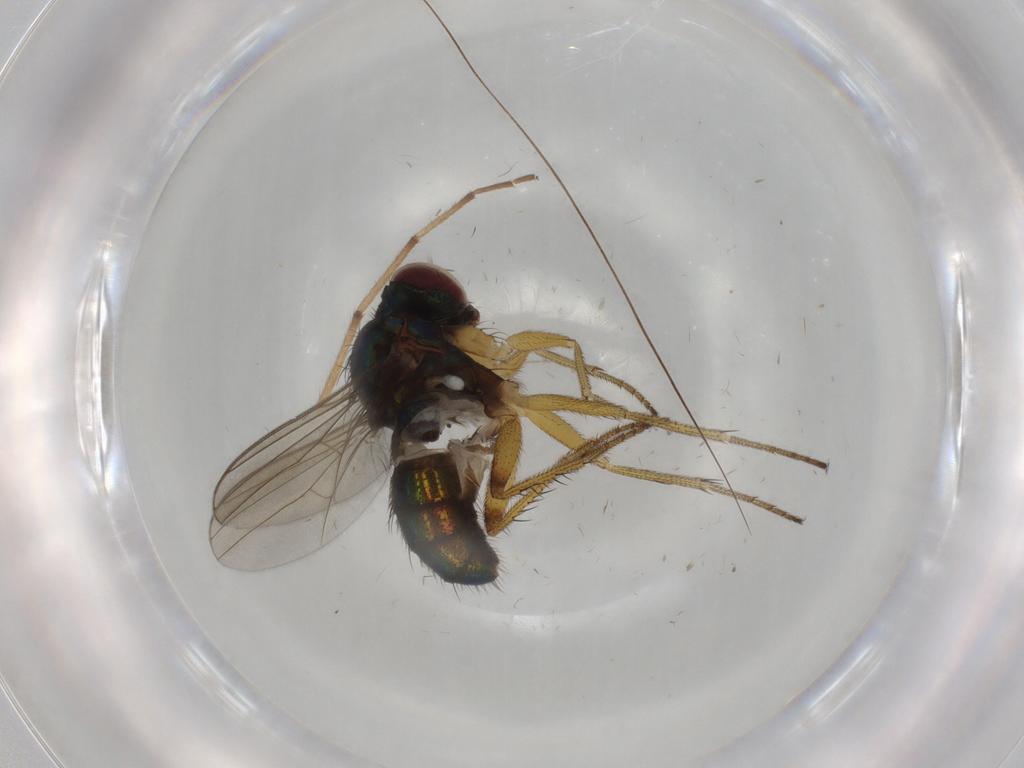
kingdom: Animalia
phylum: Arthropoda
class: Insecta
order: Diptera
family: Dolichopodidae
